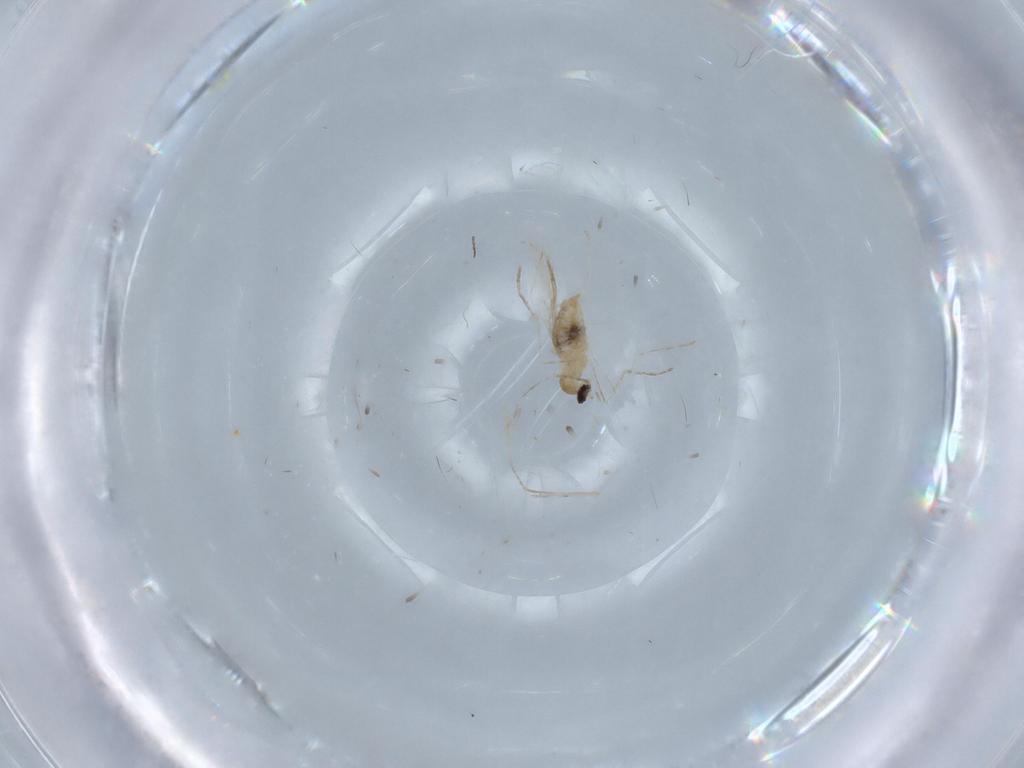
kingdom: Animalia
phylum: Arthropoda
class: Insecta
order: Diptera
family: Cecidomyiidae
